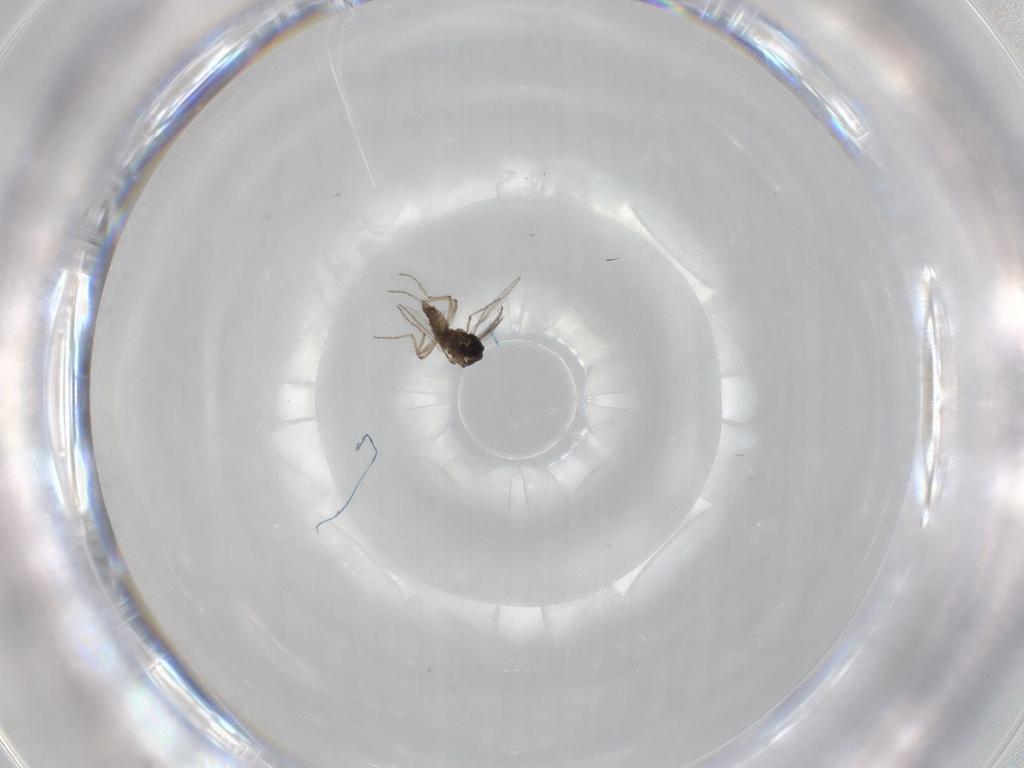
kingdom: Animalia
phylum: Arthropoda
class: Insecta
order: Diptera
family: Ceratopogonidae
